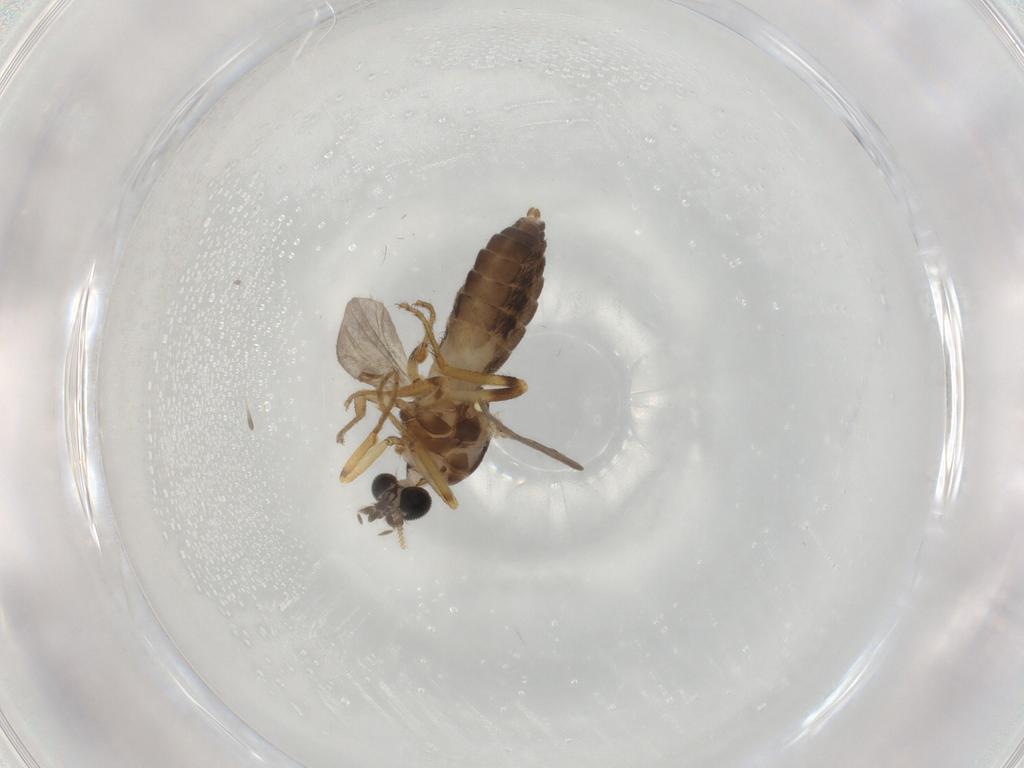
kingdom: Animalia
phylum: Arthropoda
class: Insecta
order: Diptera
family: Ceratopogonidae
